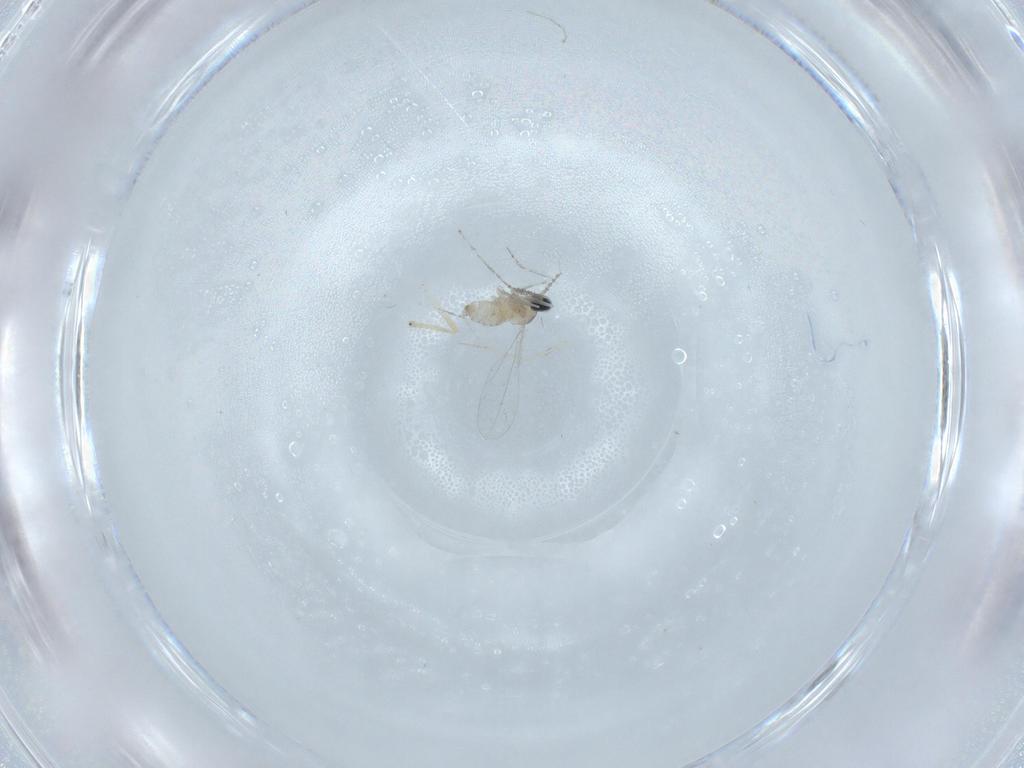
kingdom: Animalia
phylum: Arthropoda
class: Insecta
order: Diptera
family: Cecidomyiidae
